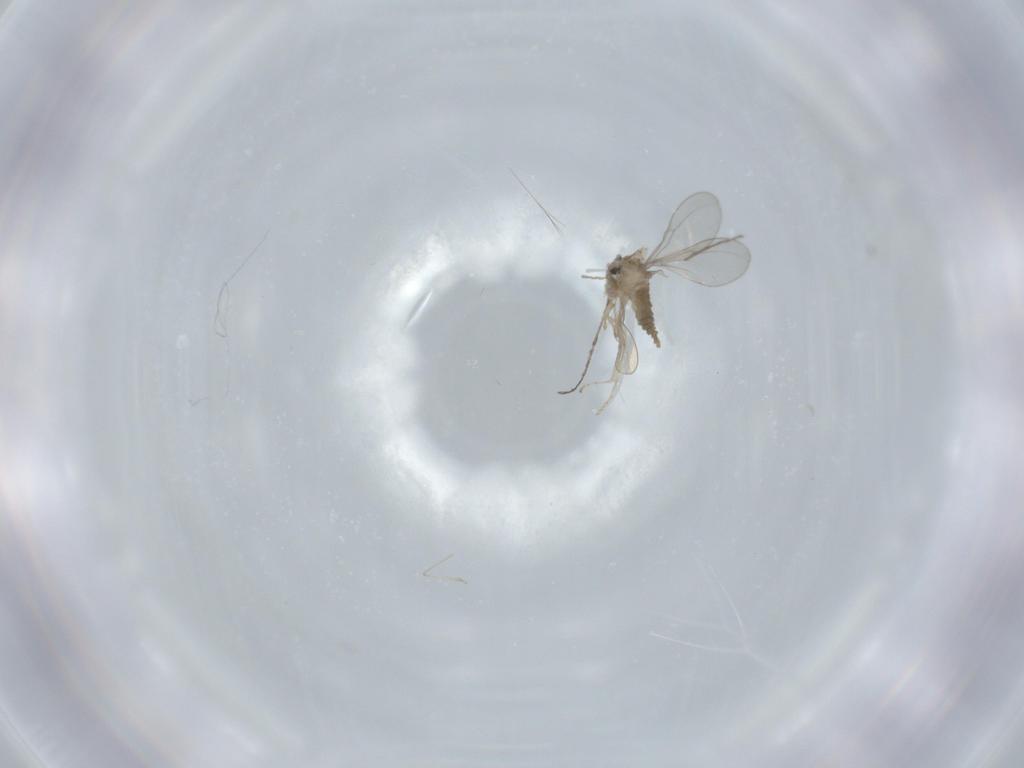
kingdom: Animalia
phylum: Arthropoda
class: Insecta
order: Diptera
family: Cecidomyiidae
